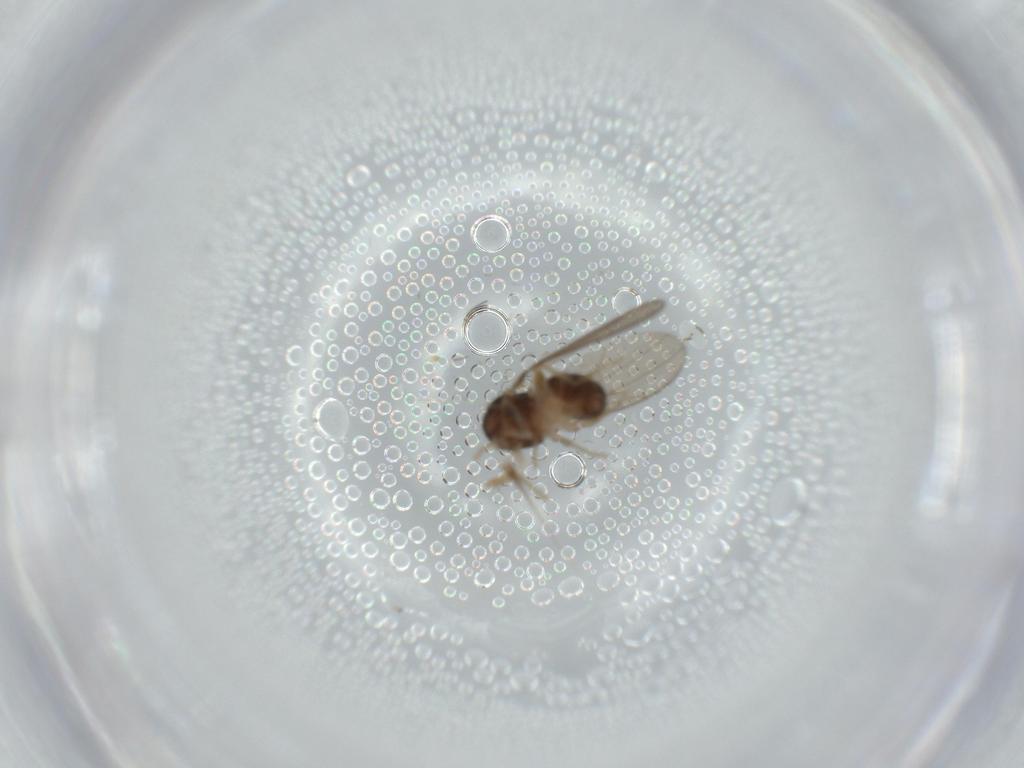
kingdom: Animalia
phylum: Arthropoda
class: Insecta
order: Diptera
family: Drosophilidae
